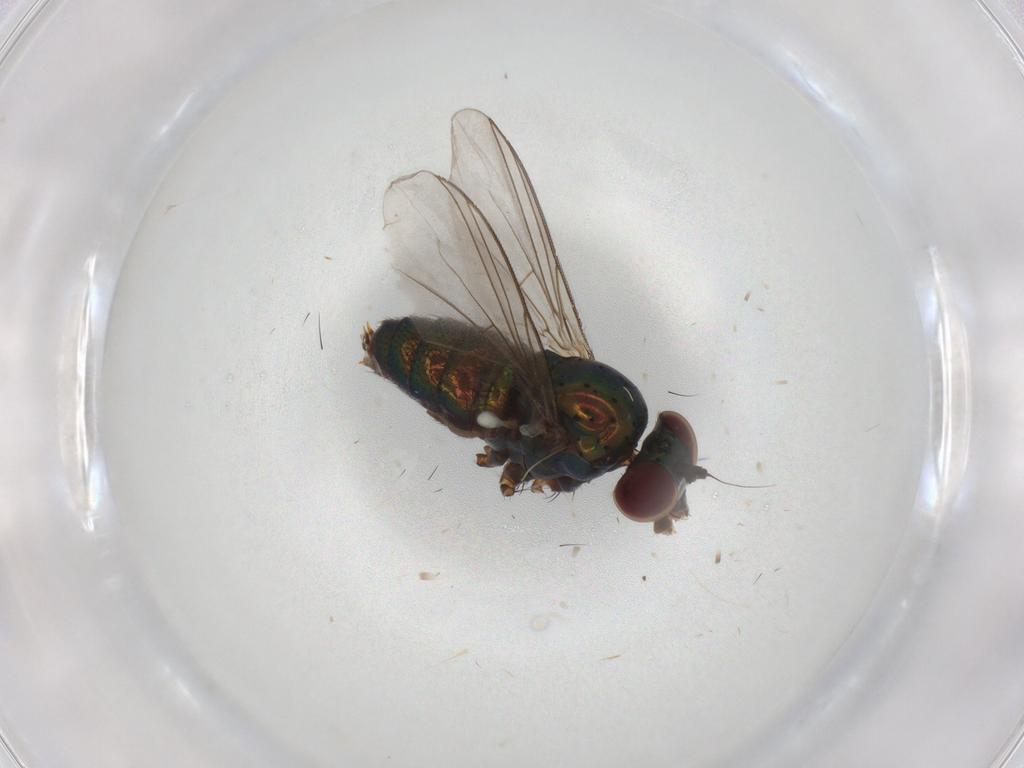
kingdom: Animalia
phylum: Arthropoda
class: Insecta
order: Diptera
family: Dolichopodidae
